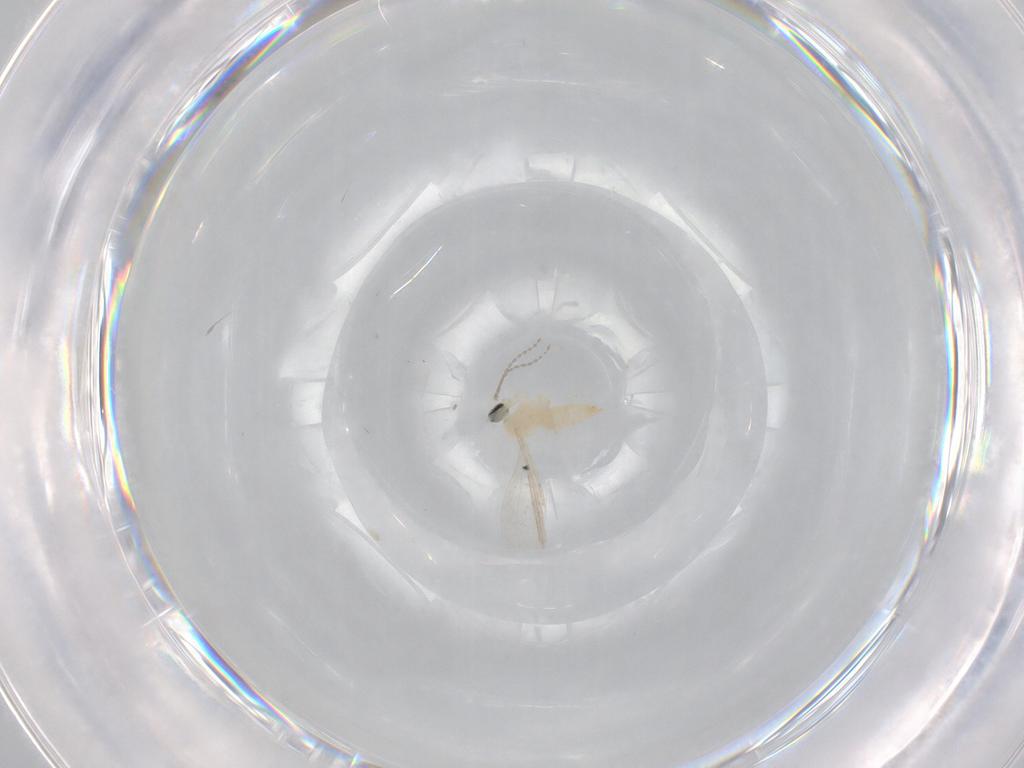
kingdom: Animalia
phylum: Arthropoda
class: Insecta
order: Diptera
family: Cecidomyiidae
